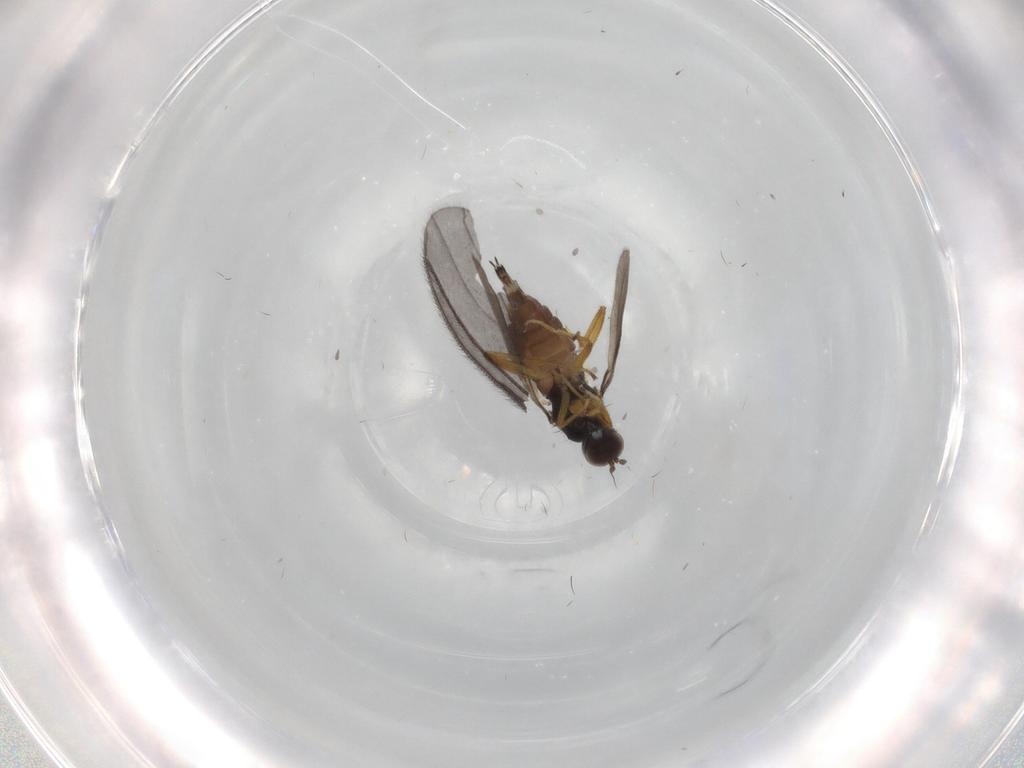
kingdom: Animalia
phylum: Arthropoda
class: Insecta
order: Diptera
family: Hybotidae
